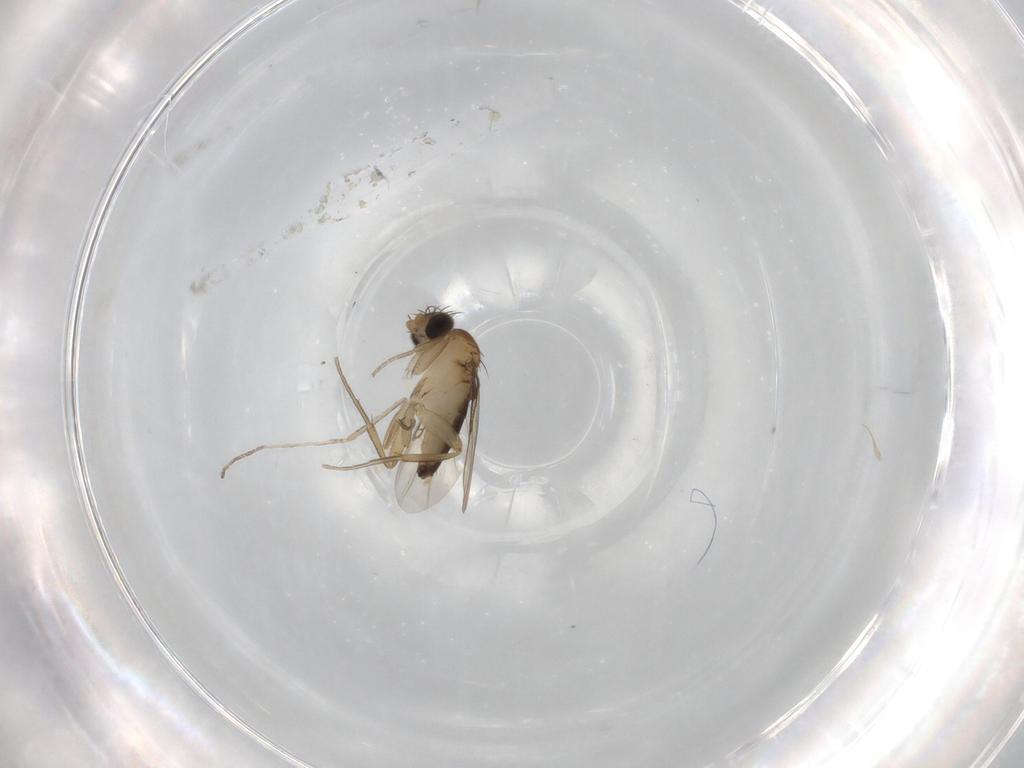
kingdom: Animalia
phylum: Arthropoda
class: Insecta
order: Diptera
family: Phoridae
